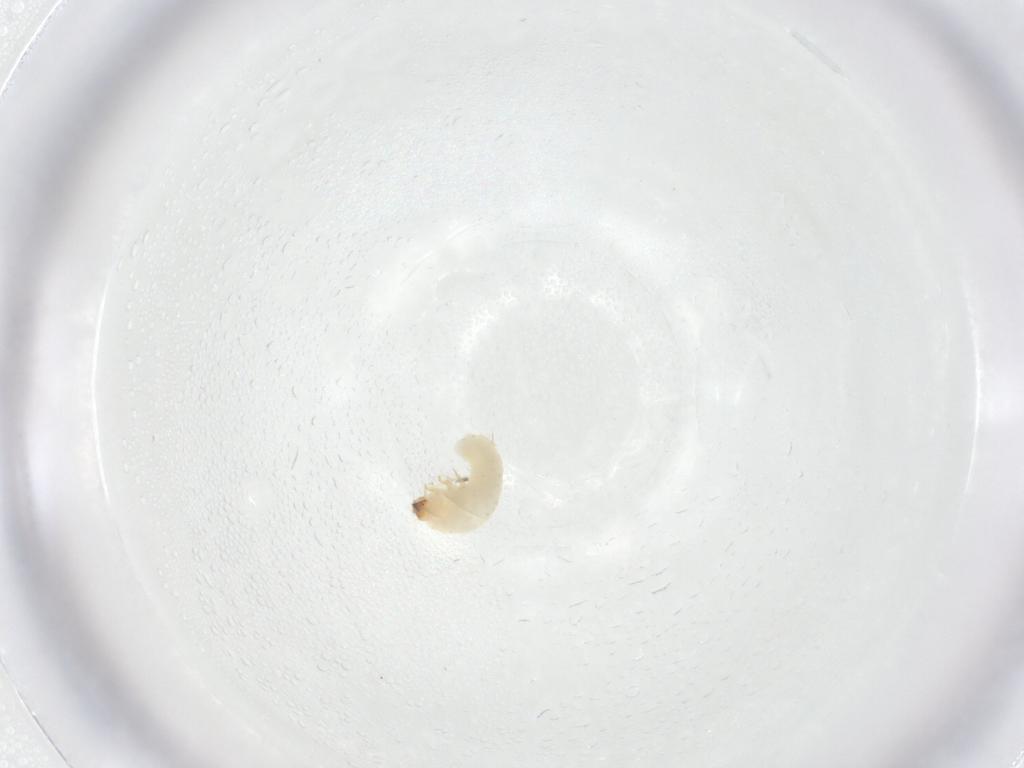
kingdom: Animalia
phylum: Arthropoda
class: Insecta
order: Coleoptera
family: Bostrichidae
